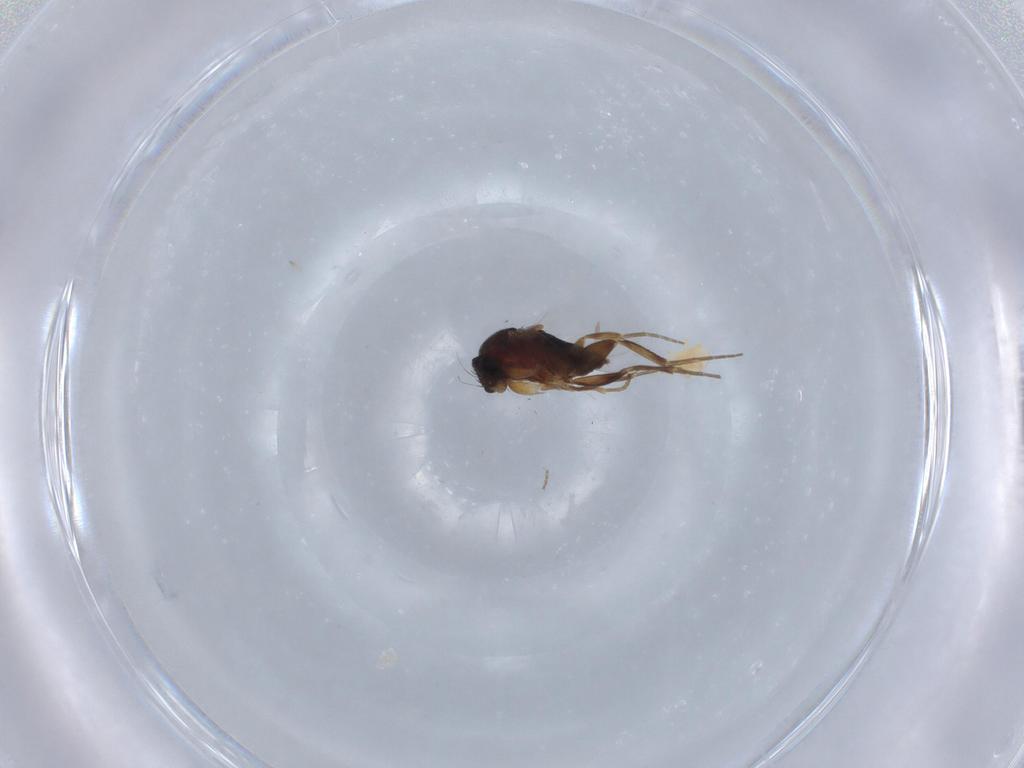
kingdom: Animalia
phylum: Arthropoda
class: Insecta
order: Diptera
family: Phoridae
